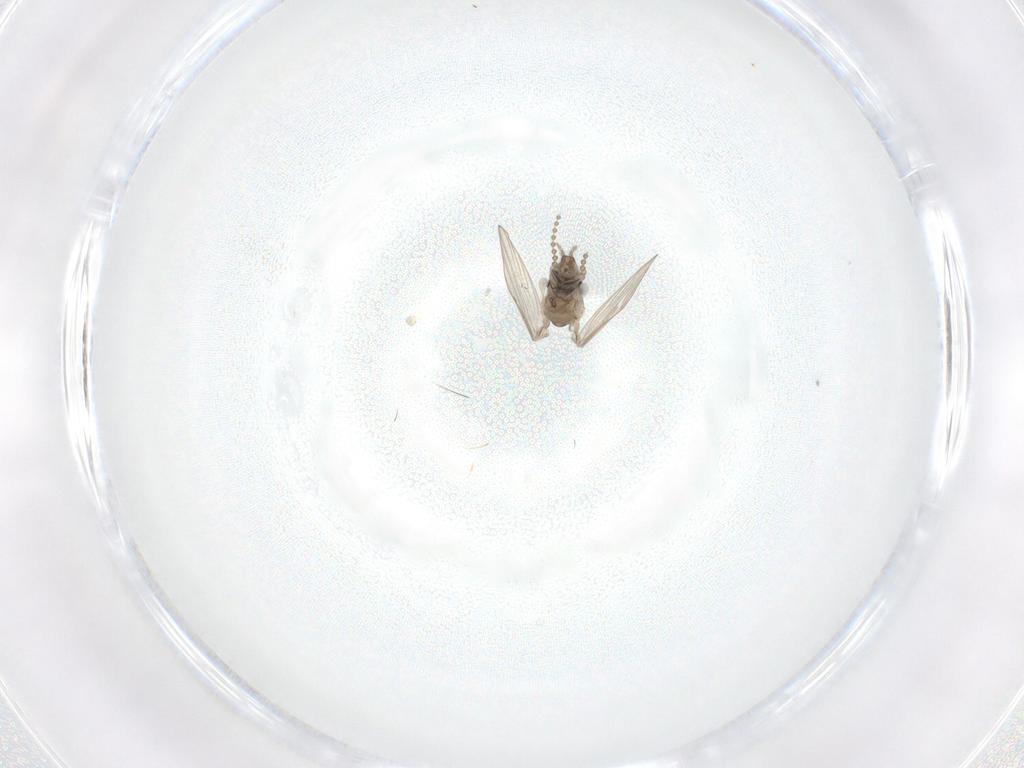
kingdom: Animalia
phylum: Arthropoda
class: Insecta
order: Diptera
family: Psychodidae
